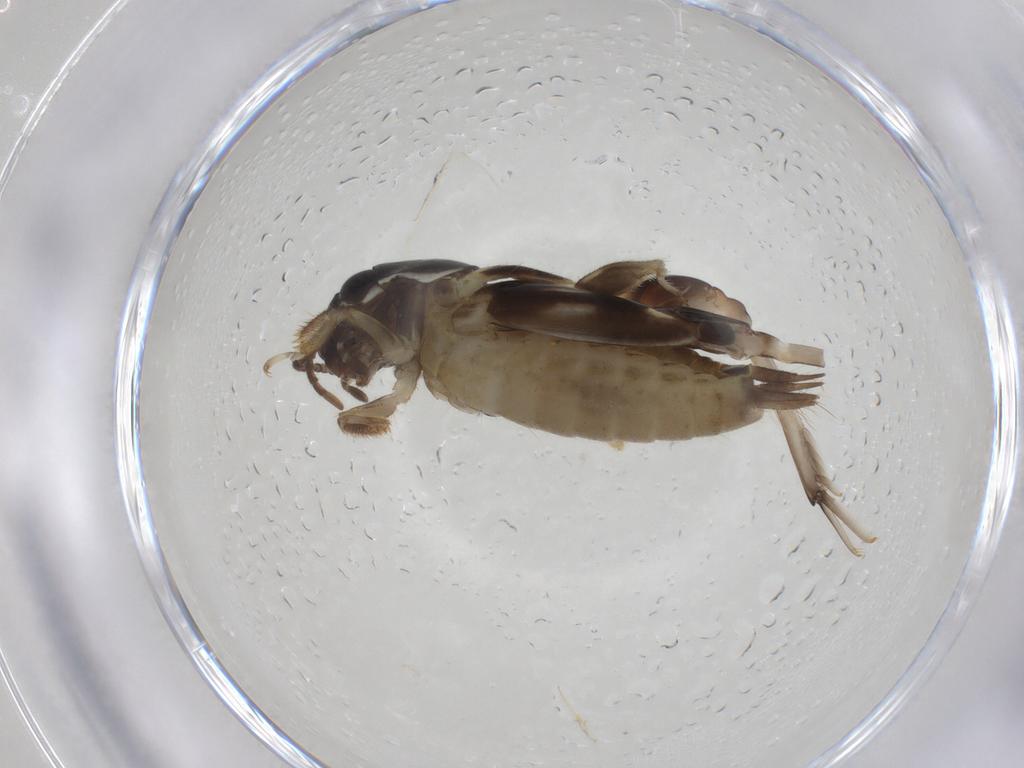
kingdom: Animalia
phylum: Arthropoda
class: Insecta
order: Orthoptera
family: Tridactylidae
